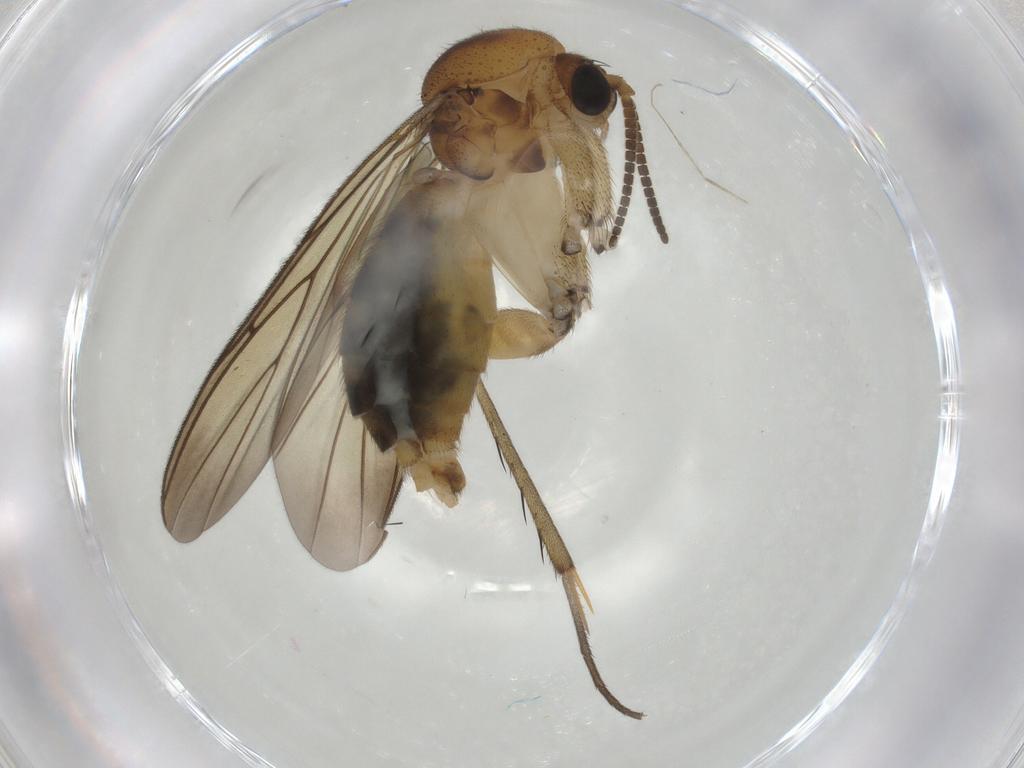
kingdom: Animalia
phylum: Arthropoda
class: Insecta
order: Diptera
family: Mycetophilidae
